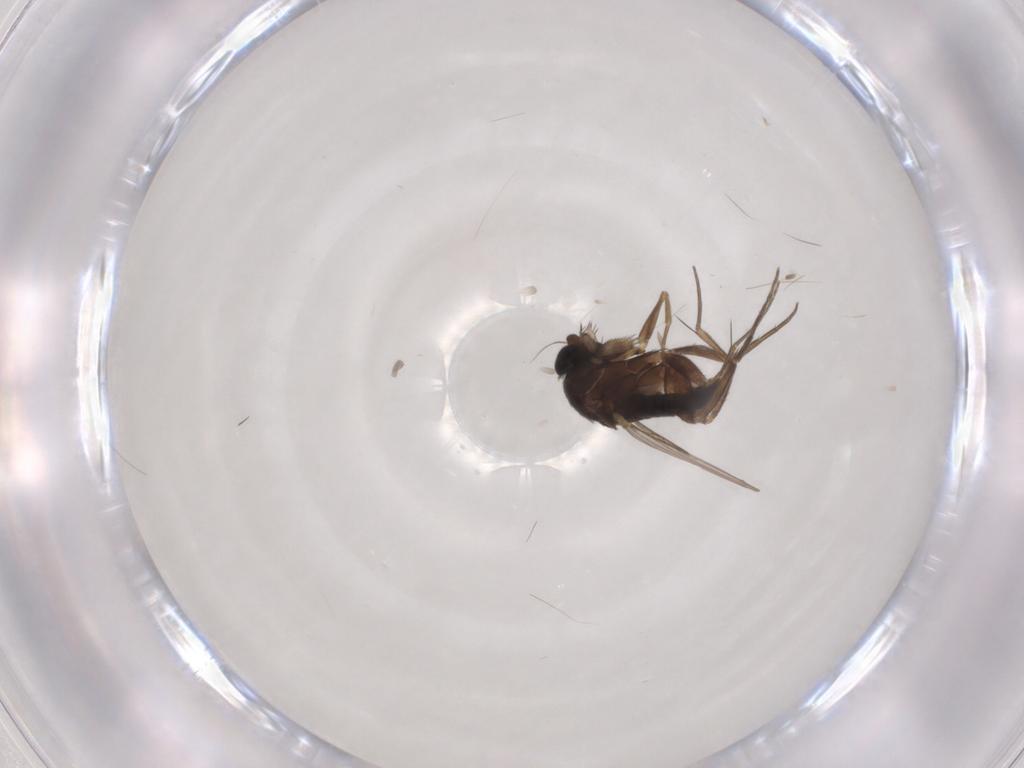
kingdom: Animalia
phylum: Arthropoda
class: Insecta
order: Diptera
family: Phoridae
